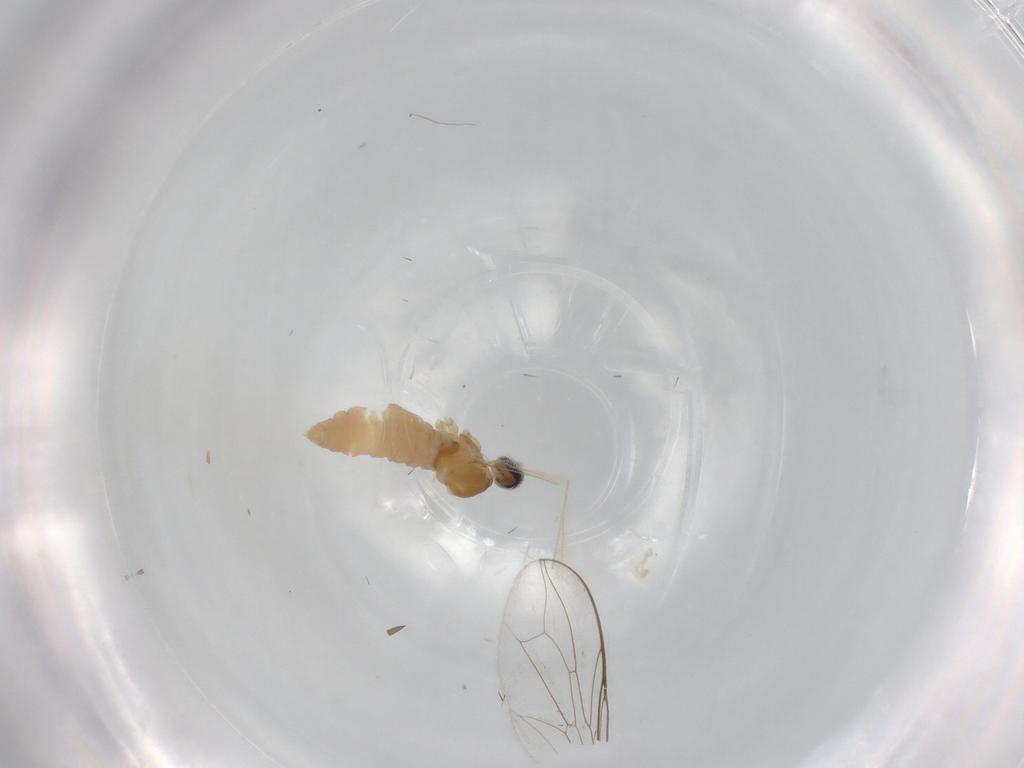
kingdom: Animalia
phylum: Arthropoda
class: Insecta
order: Diptera
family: Cecidomyiidae
